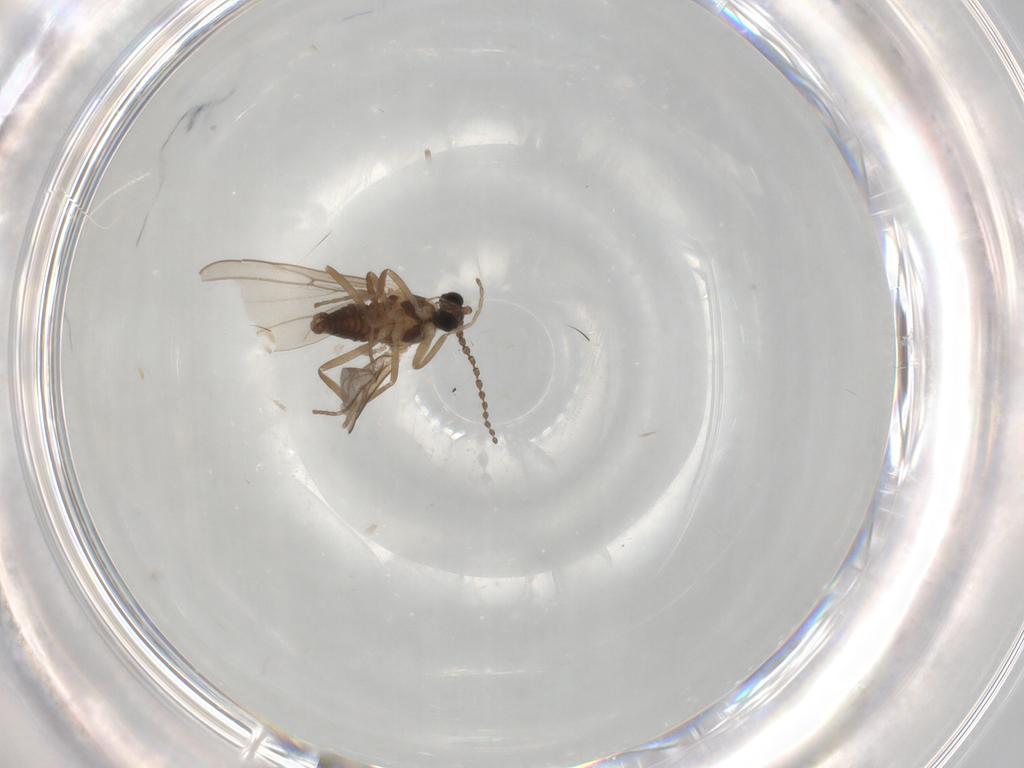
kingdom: Animalia
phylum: Arthropoda
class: Insecta
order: Diptera
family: Cecidomyiidae
